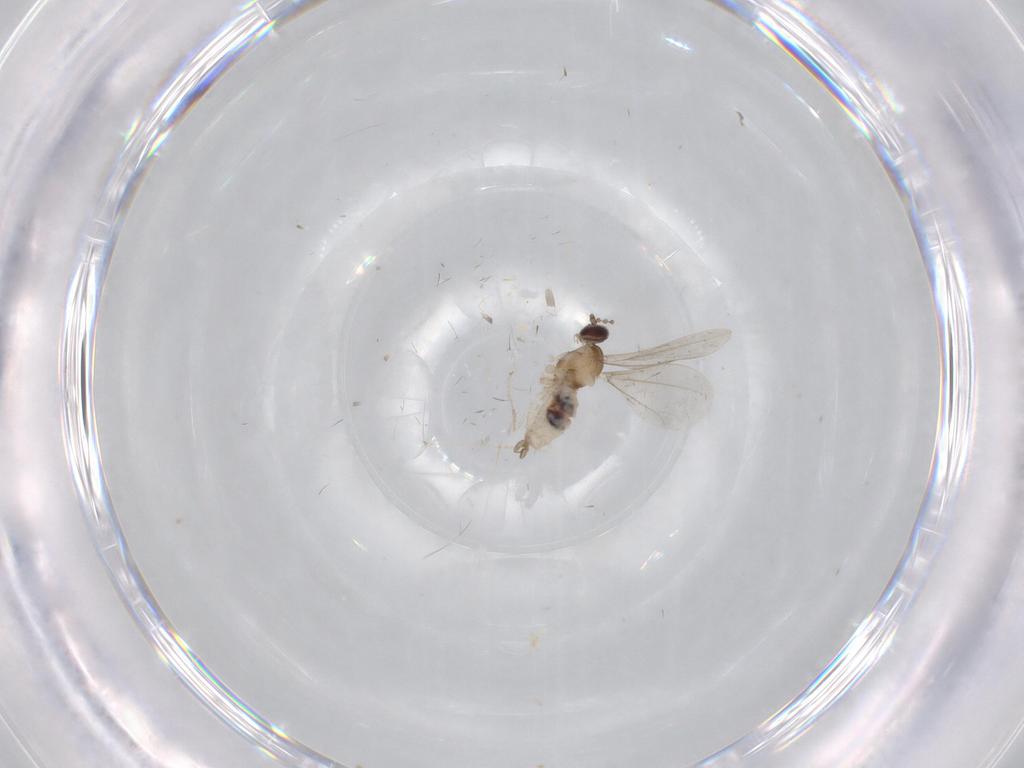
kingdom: Animalia
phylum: Arthropoda
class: Insecta
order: Diptera
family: Cecidomyiidae
